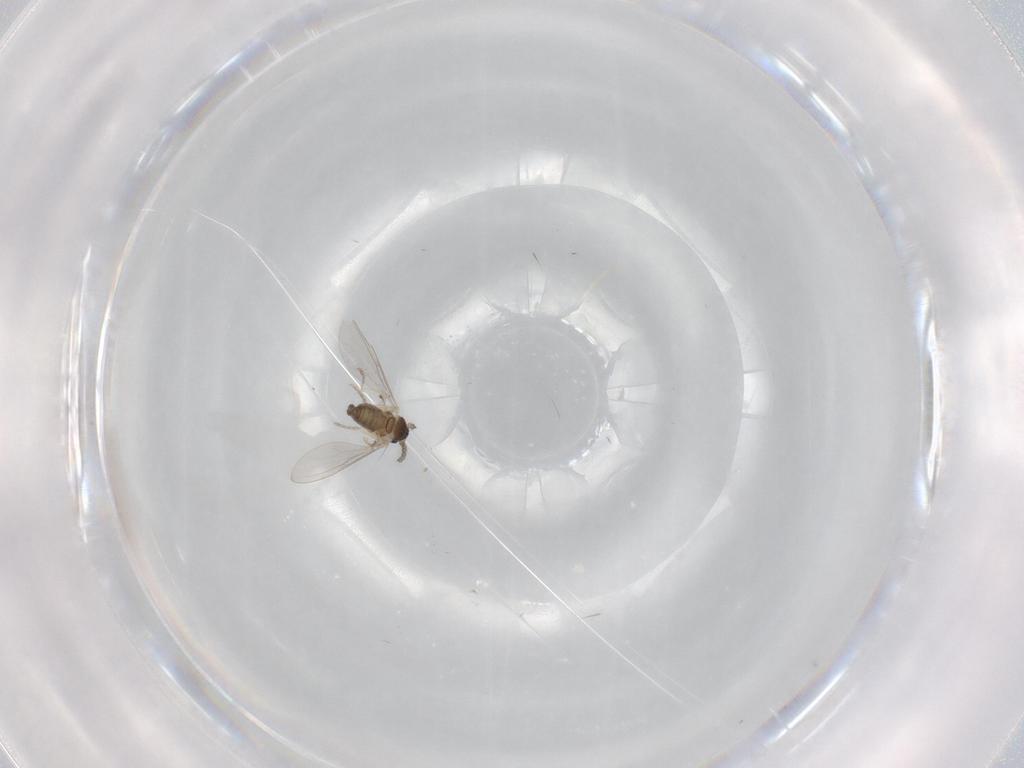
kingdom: Animalia
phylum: Arthropoda
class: Insecta
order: Diptera
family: Cecidomyiidae
